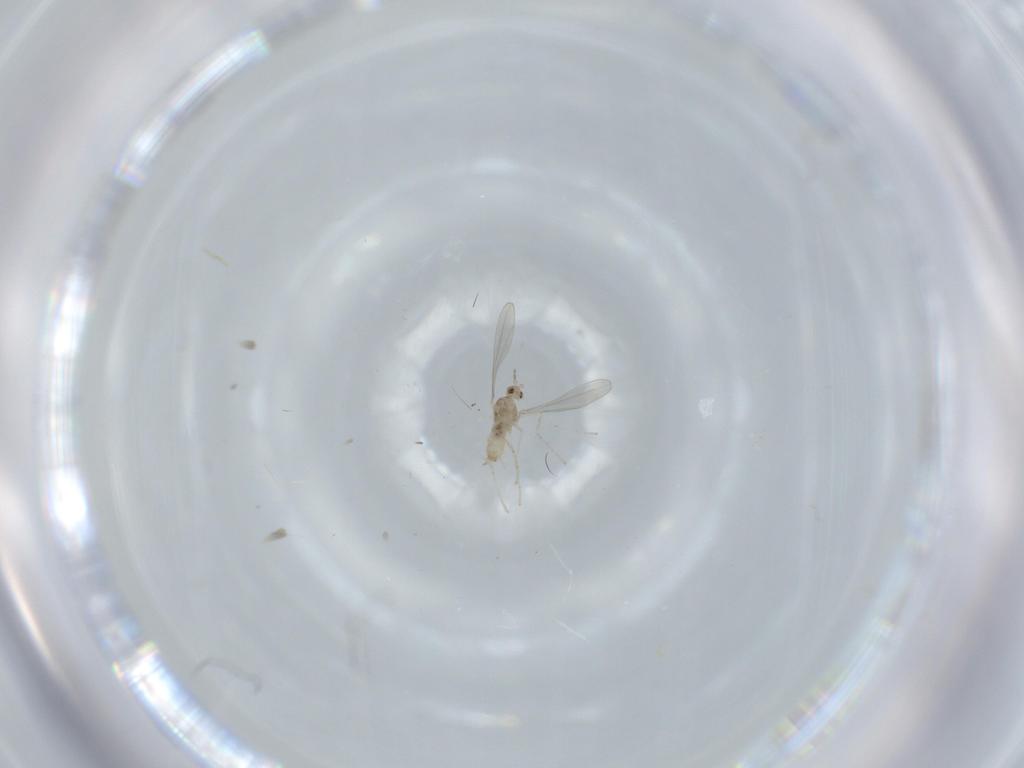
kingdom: Animalia
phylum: Arthropoda
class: Insecta
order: Diptera
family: Cecidomyiidae
